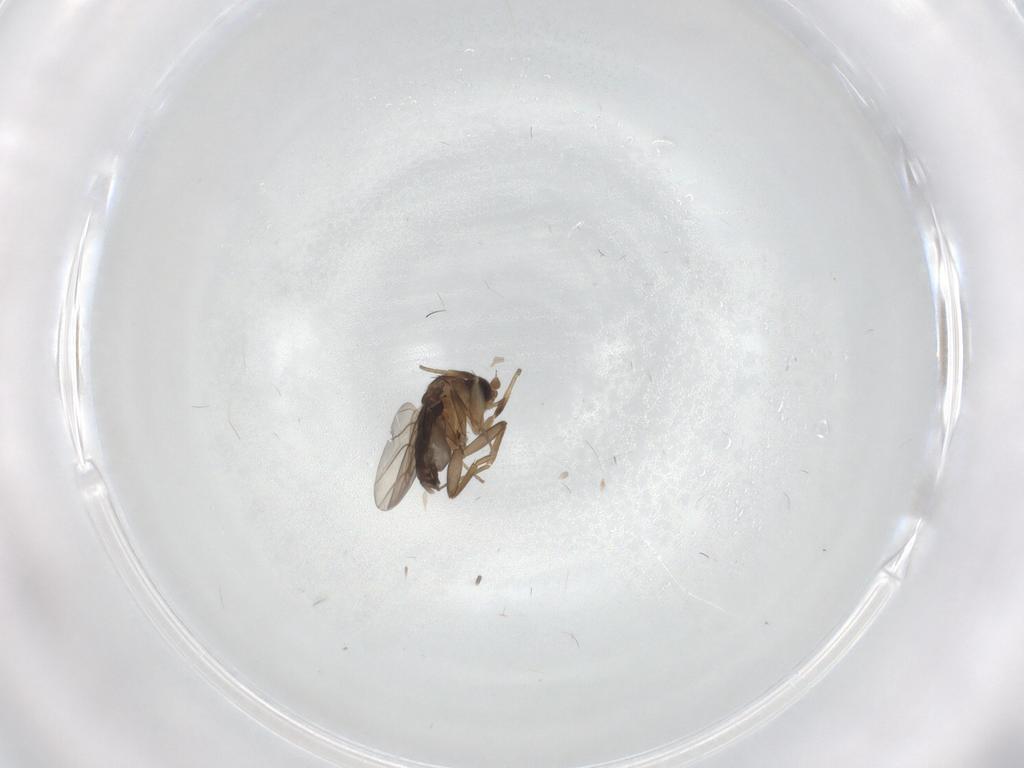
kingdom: Animalia
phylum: Arthropoda
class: Insecta
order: Diptera
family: Phoridae
